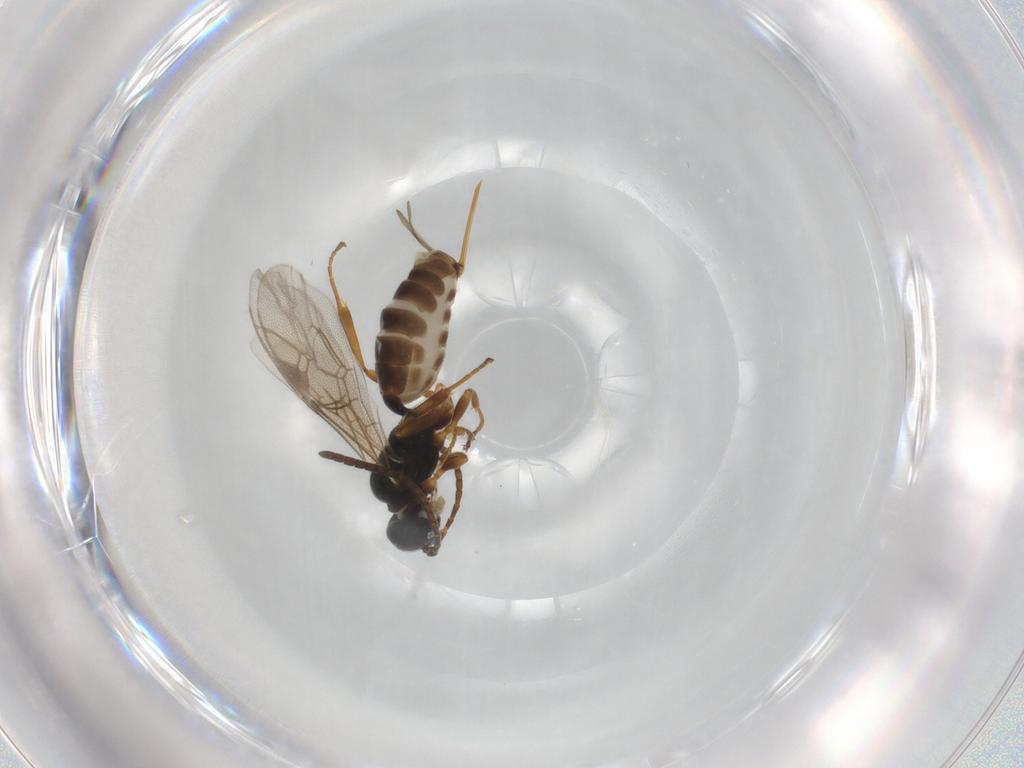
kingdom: Animalia
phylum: Arthropoda
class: Insecta
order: Hymenoptera
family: Ichneumonidae
